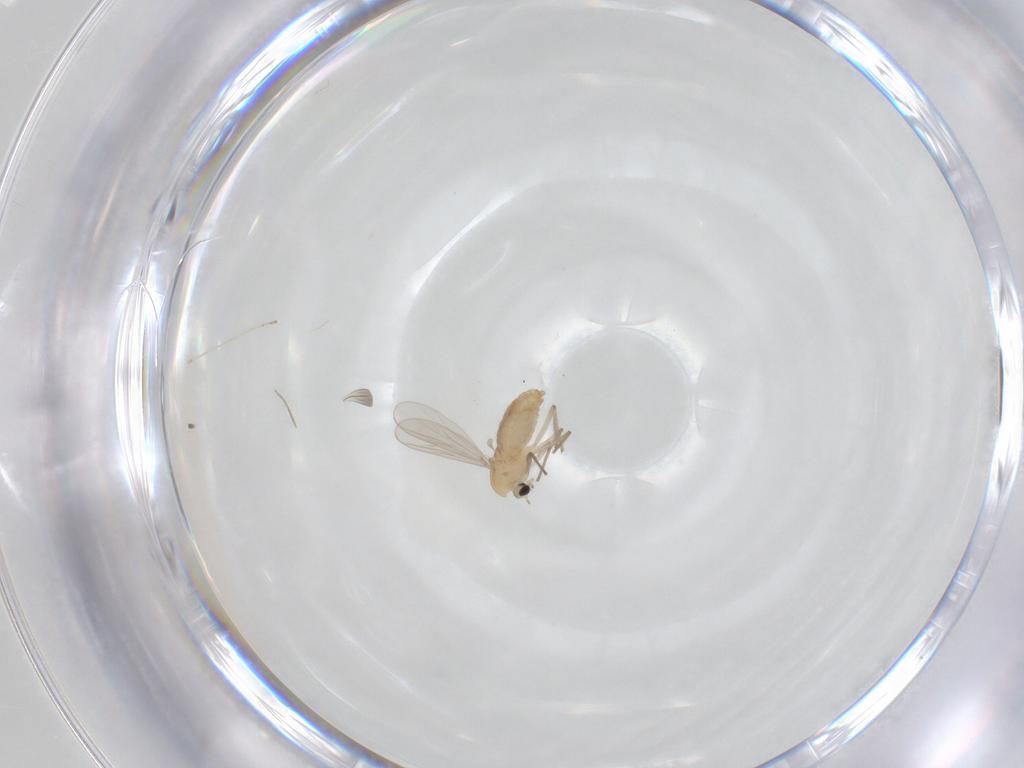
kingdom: Animalia
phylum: Arthropoda
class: Insecta
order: Diptera
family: Chironomidae
